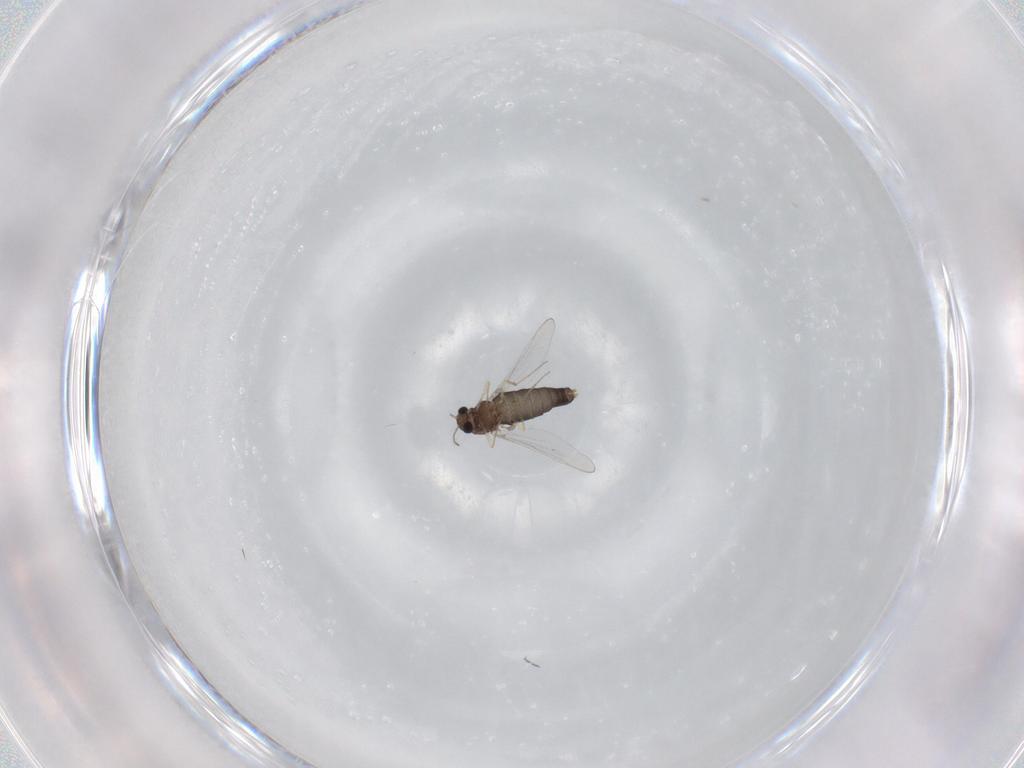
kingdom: Animalia
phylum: Arthropoda
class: Insecta
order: Diptera
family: Chironomidae
